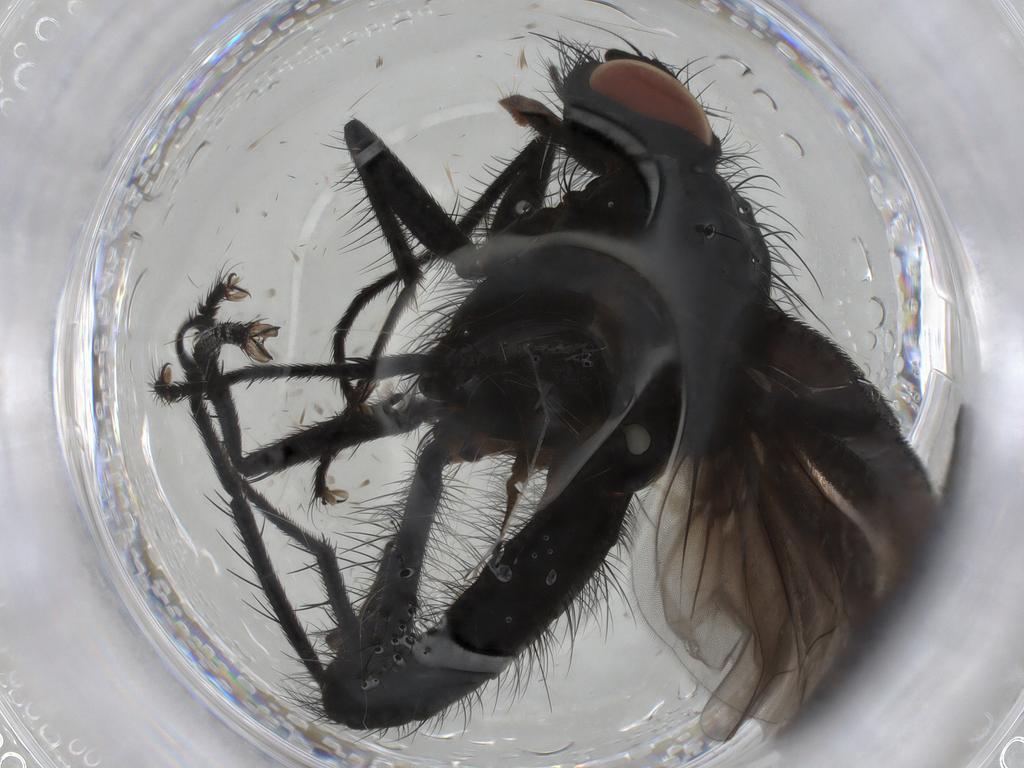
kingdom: Animalia
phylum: Arthropoda
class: Insecta
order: Diptera
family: Anthomyiidae
